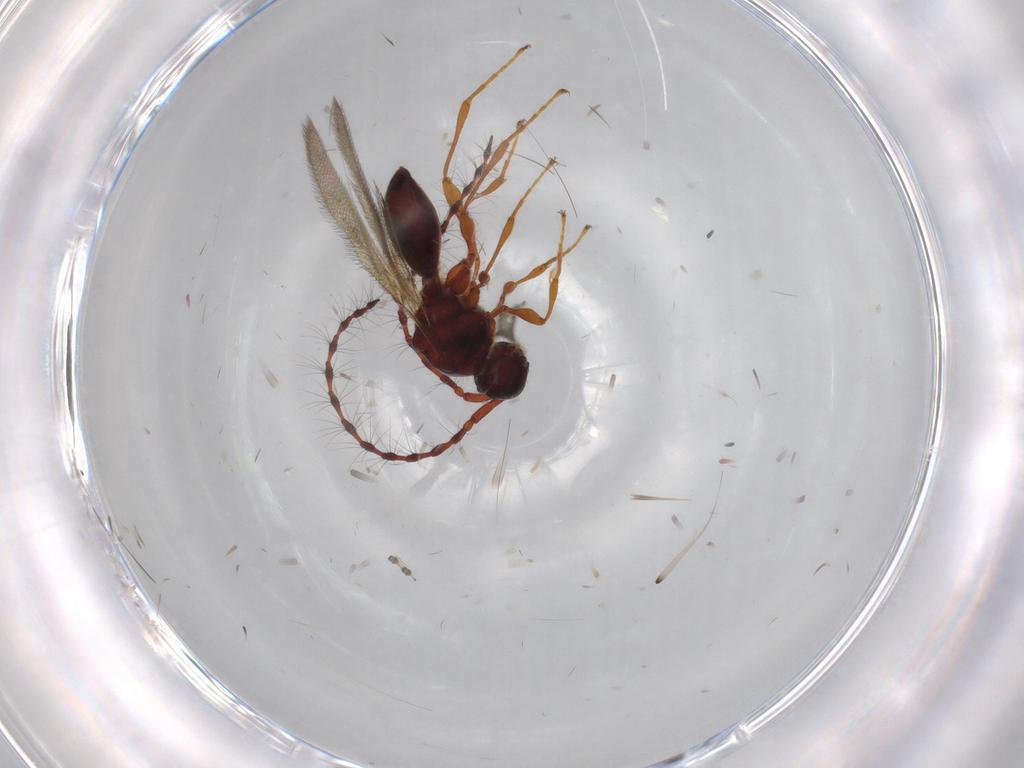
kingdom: Animalia
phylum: Arthropoda
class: Insecta
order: Hymenoptera
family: Diapriidae
